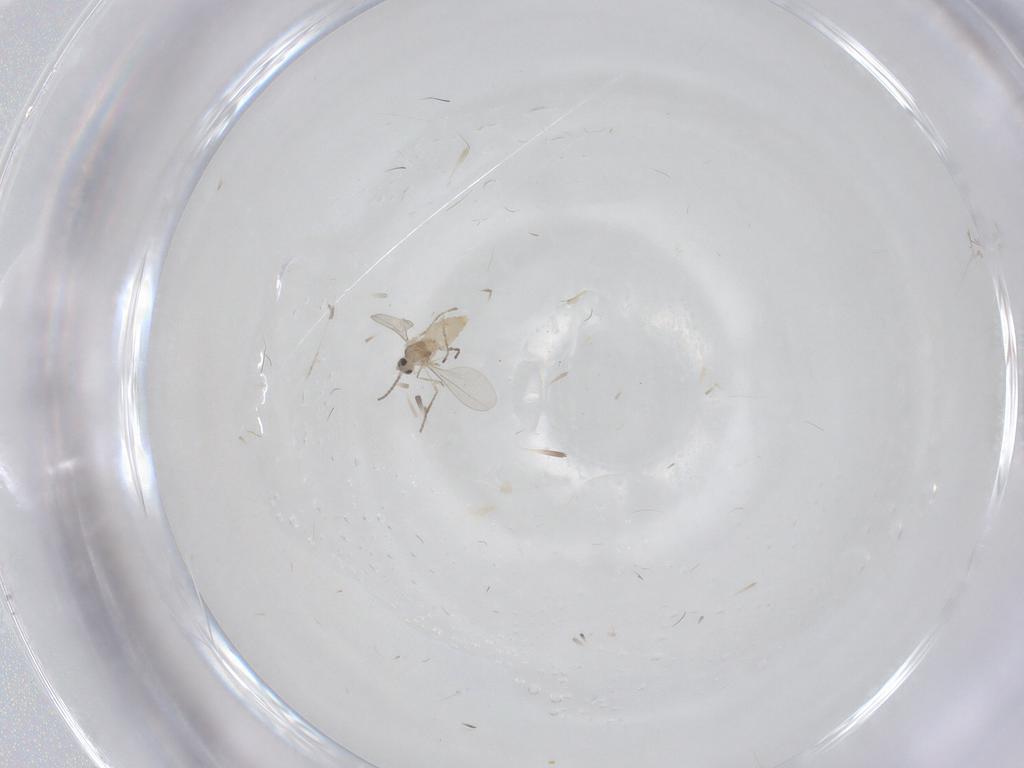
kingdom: Animalia
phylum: Arthropoda
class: Insecta
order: Diptera
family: Cecidomyiidae
